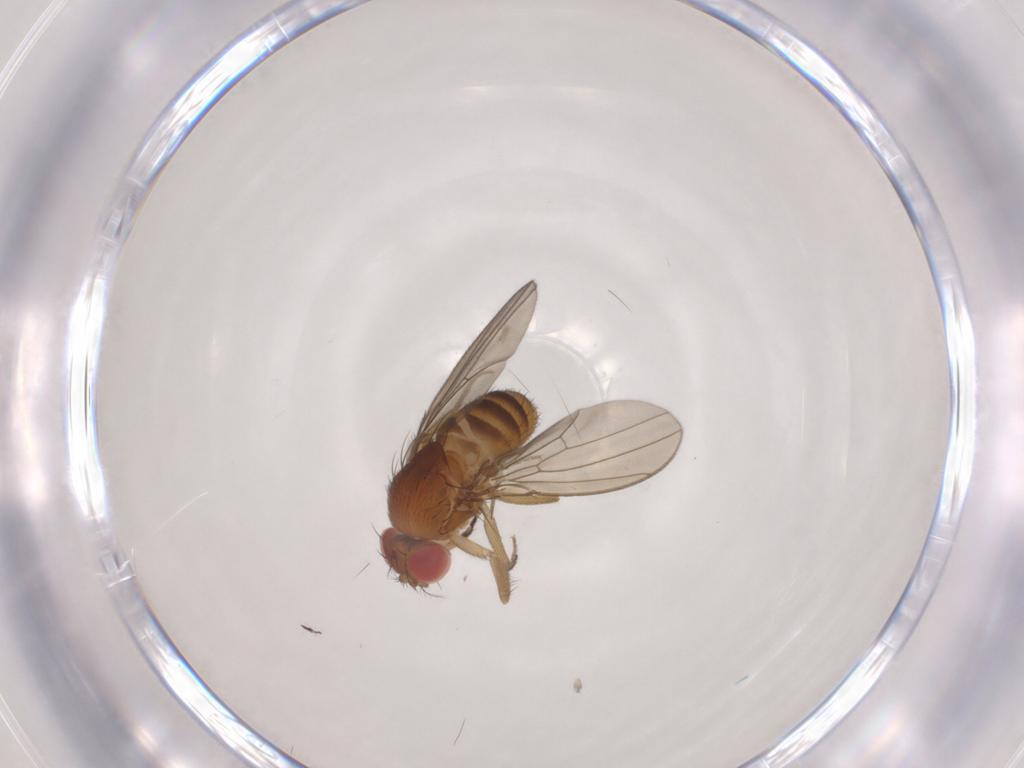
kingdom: Animalia
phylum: Arthropoda
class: Insecta
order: Diptera
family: Drosophilidae
